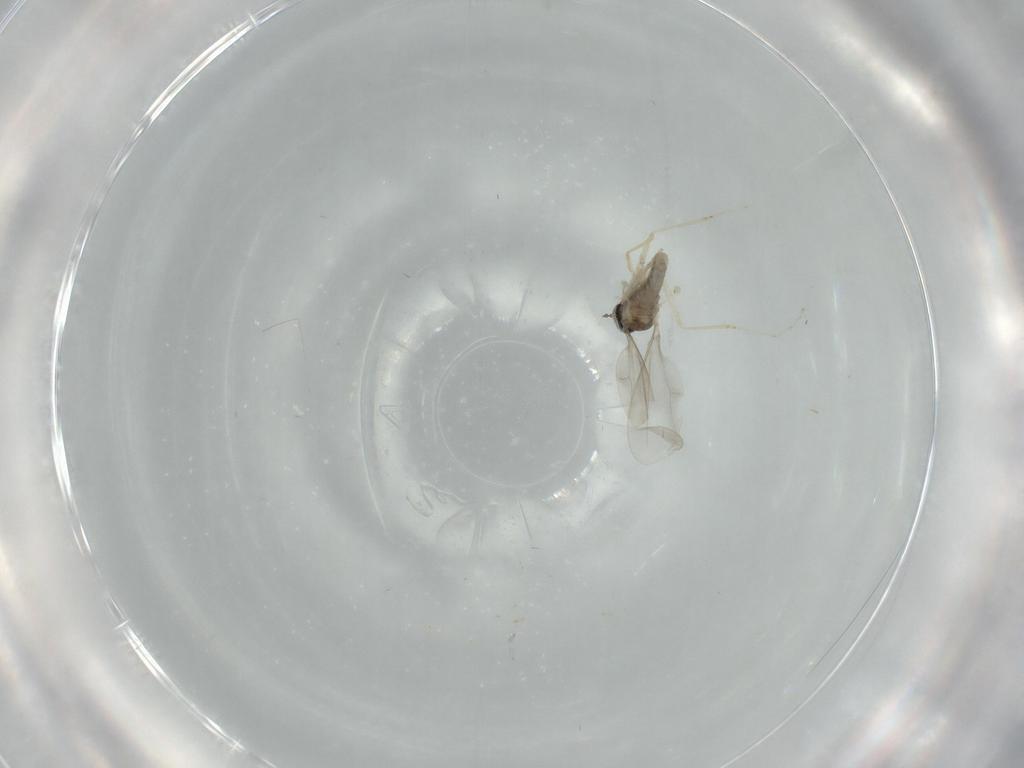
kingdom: Animalia
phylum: Arthropoda
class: Insecta
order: Diptera
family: Cecidomyiidae
